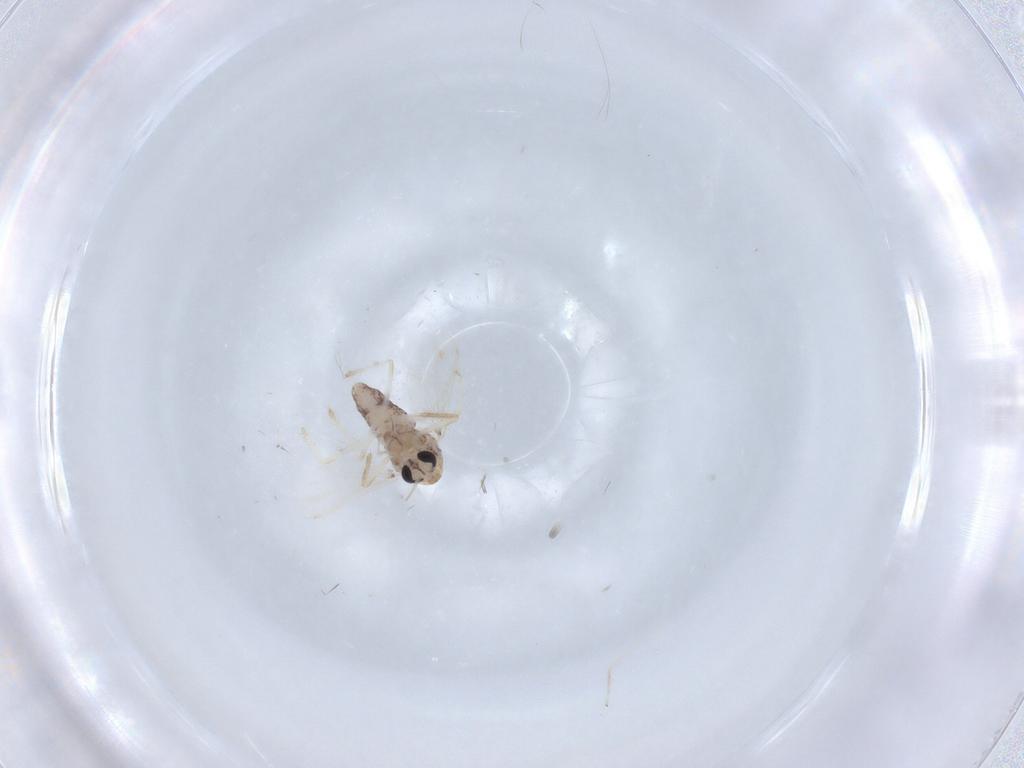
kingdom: Animalia
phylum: Arthropoda
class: Insecta
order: Diptera
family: Chironomidae
